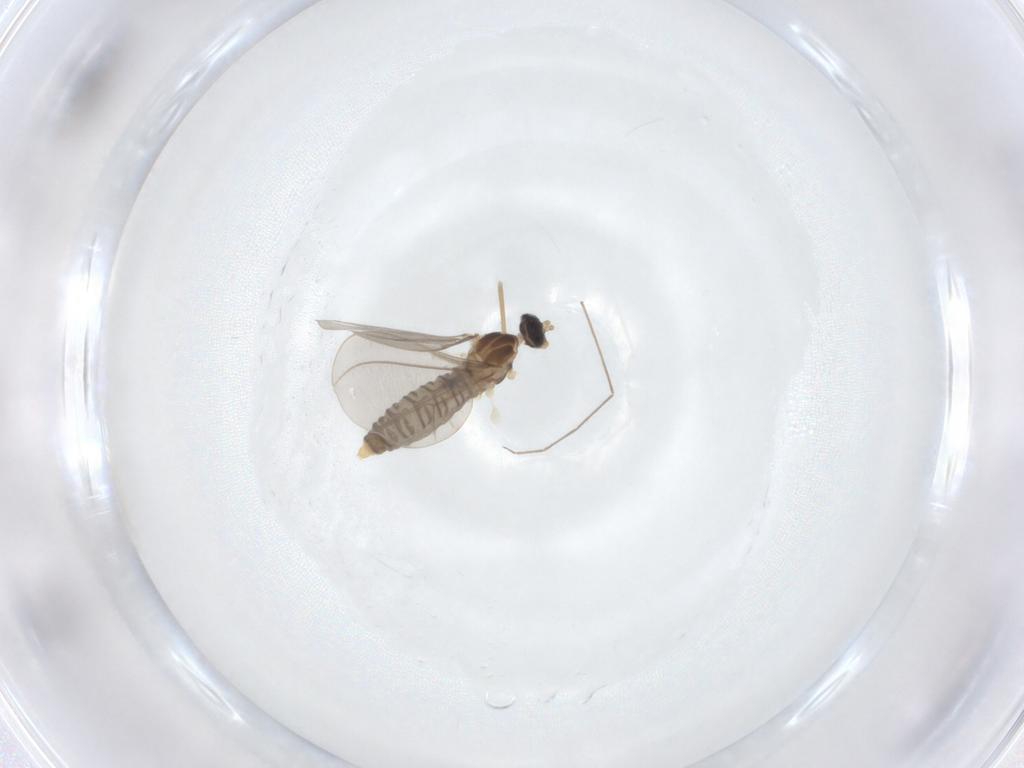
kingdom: Animalia
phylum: Arthropoda
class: Insecta
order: Diptera
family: Chironomidae
